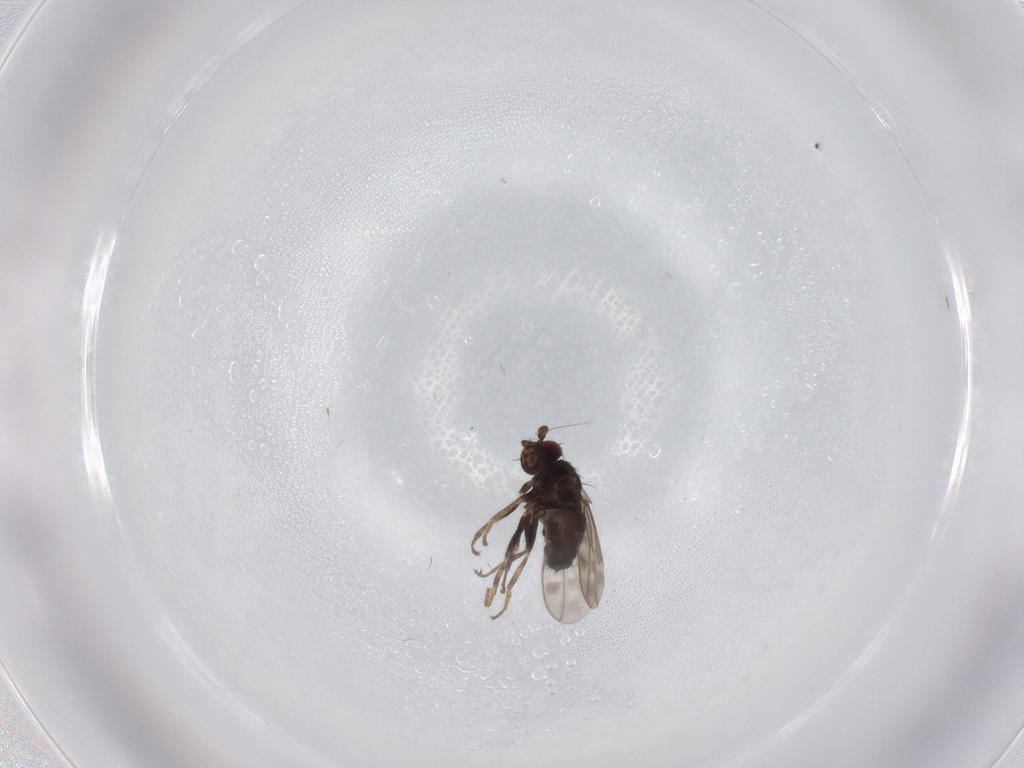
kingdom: Animalia
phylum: Arthropoda
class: Insecta
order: Diptera
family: Sphaeroceridae
